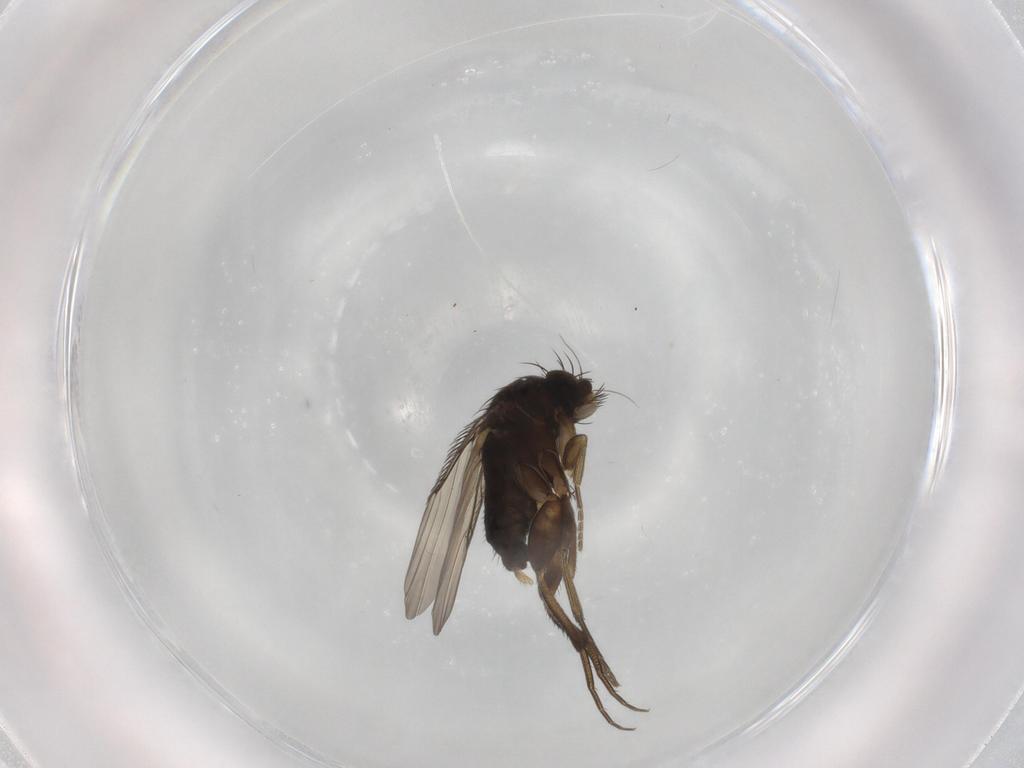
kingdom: Animalia
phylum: Arthropoda
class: Insecta
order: Diptera
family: Phoridae
